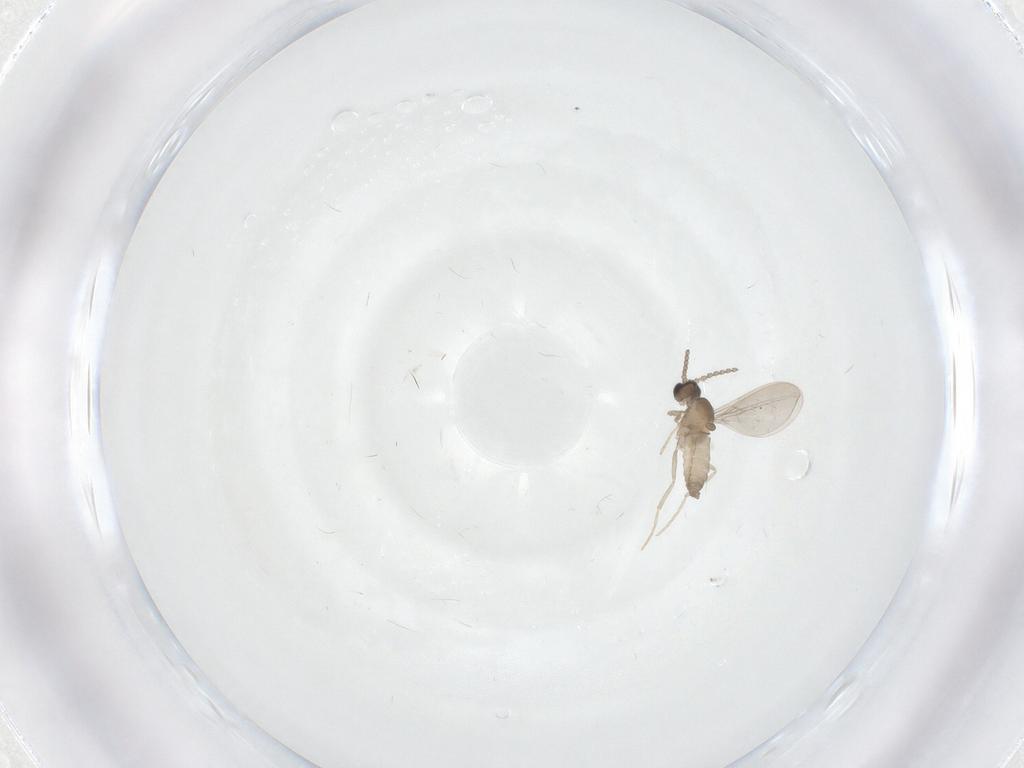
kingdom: Animalia
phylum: Arthropoda
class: Insecta
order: Diptera
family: Cecidomyiidae
